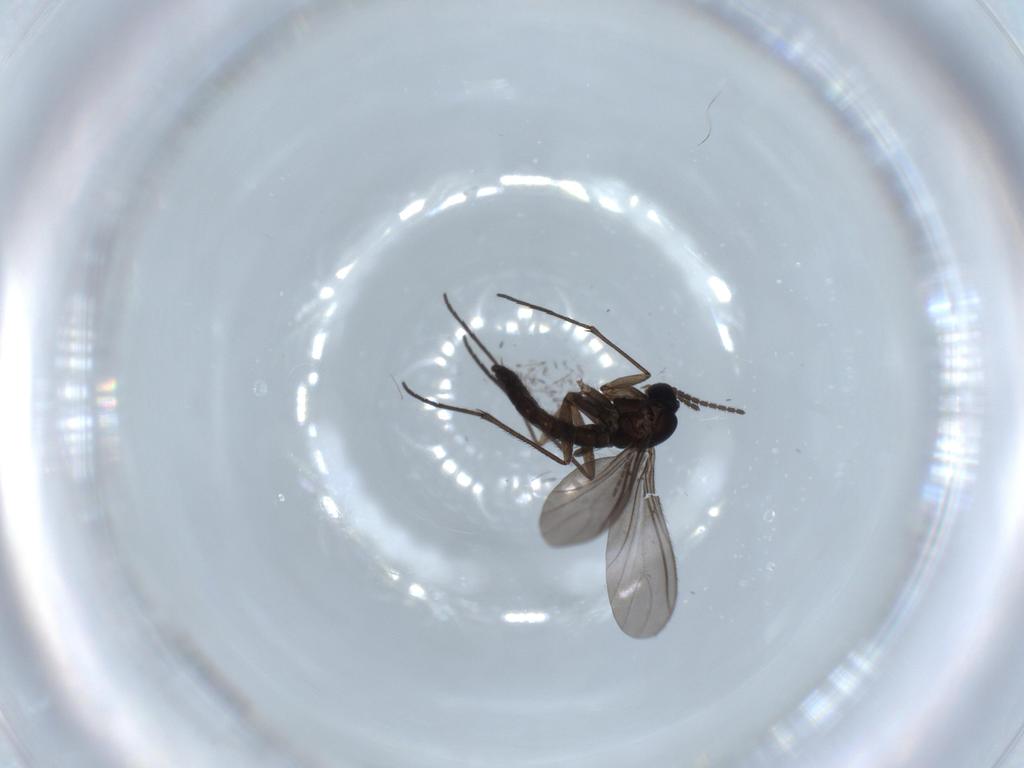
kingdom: Animalia
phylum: Arthropoda
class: Insecta
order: Diptera
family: Sciaridae
